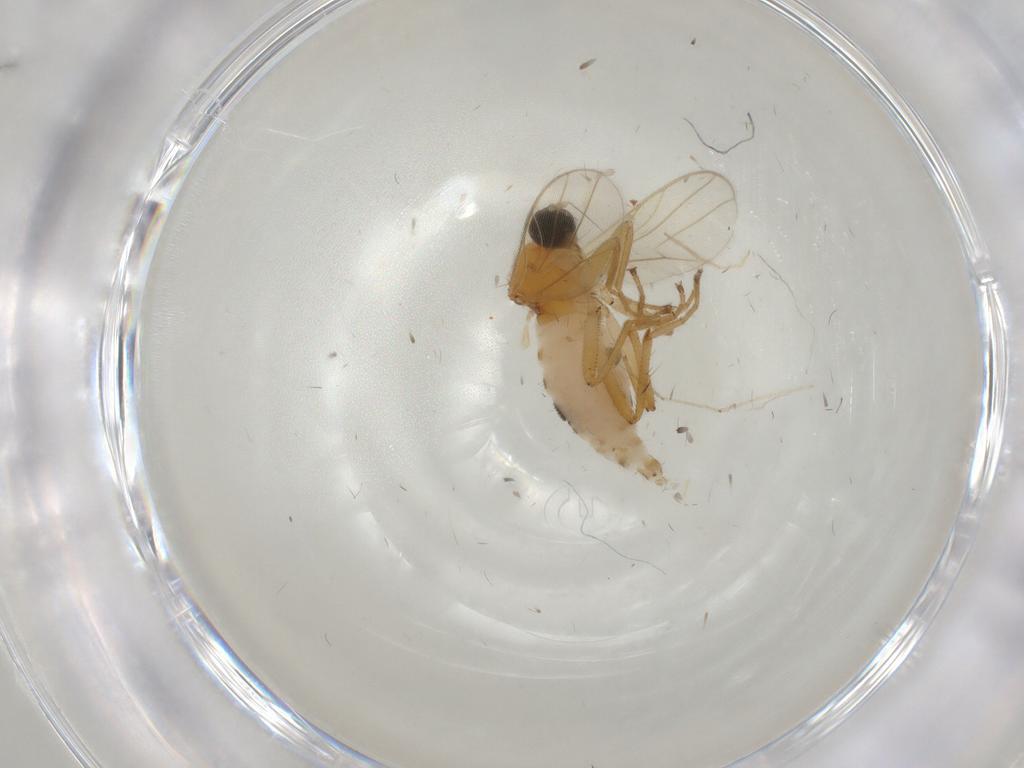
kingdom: Animalia
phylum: Arthropoda
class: Insecta
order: Diptera
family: Hybotidae
